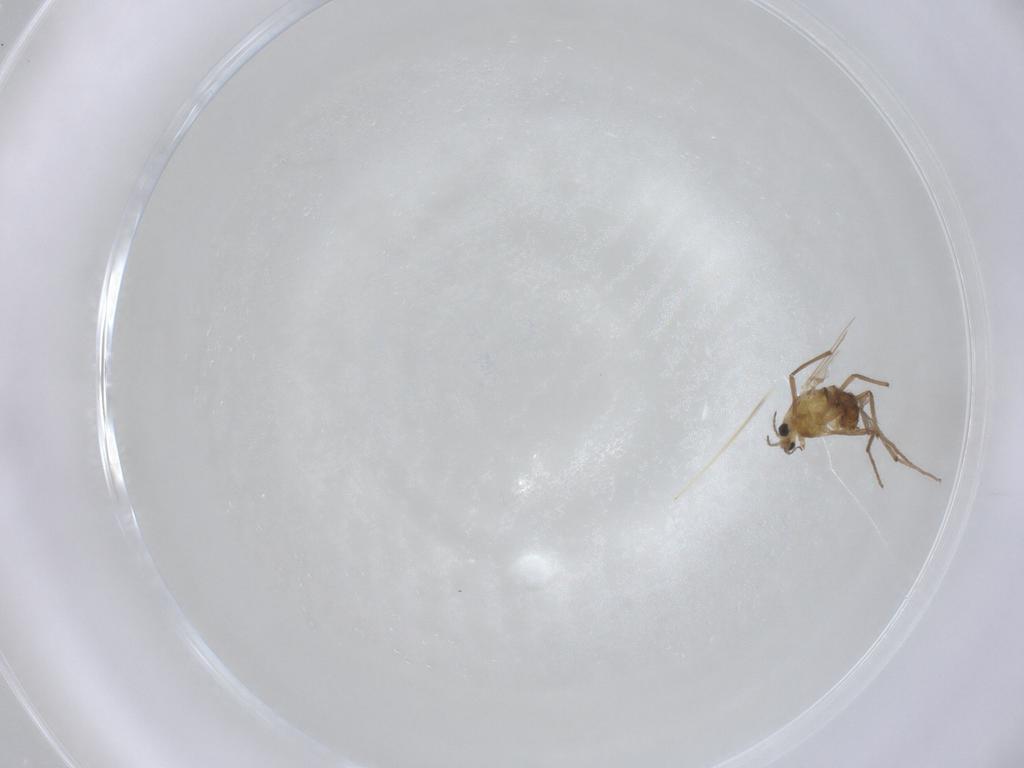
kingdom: Animalia
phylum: Arthropoda
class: Insecta
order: Diptera
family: Chironomidae
